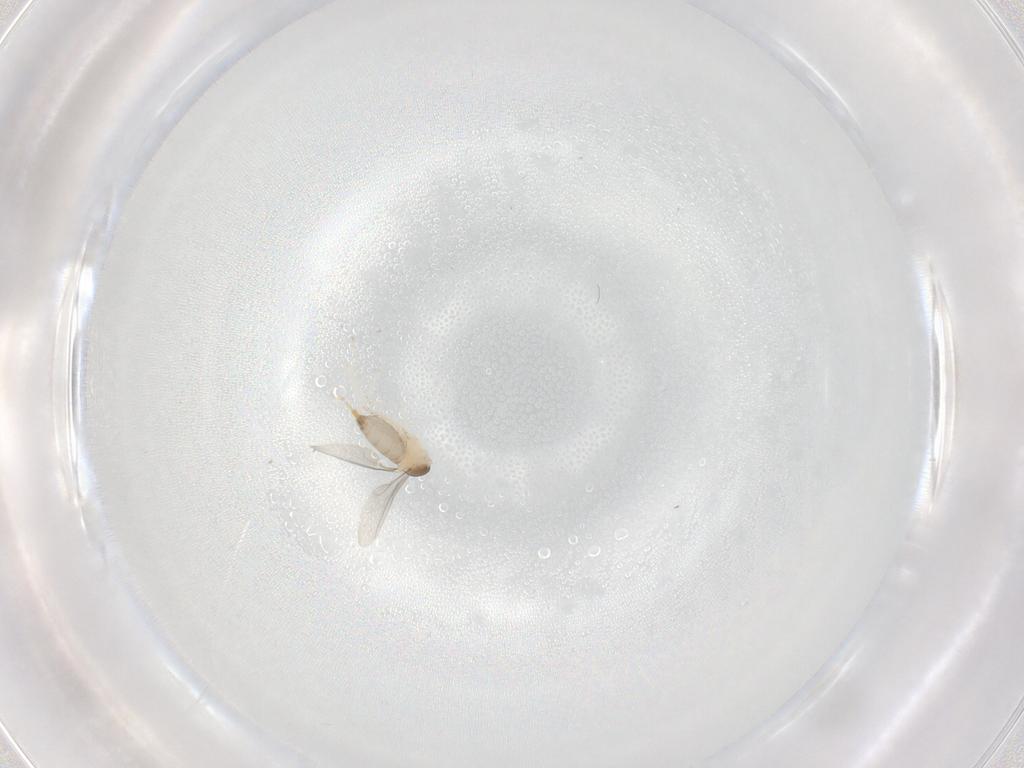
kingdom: Animalia
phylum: Arthropoda
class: Insecta
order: Diptera
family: Cecidomyiidae
